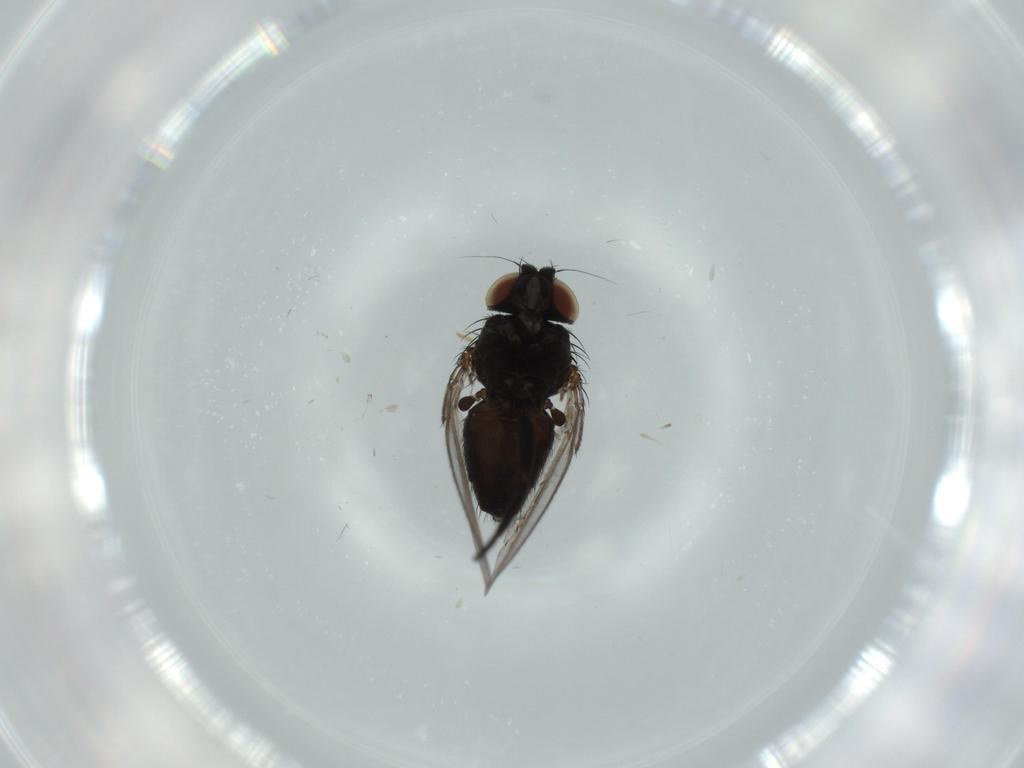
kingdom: Animalia
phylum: Arthropoda
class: Insecta
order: Diptera
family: Milichiidae
